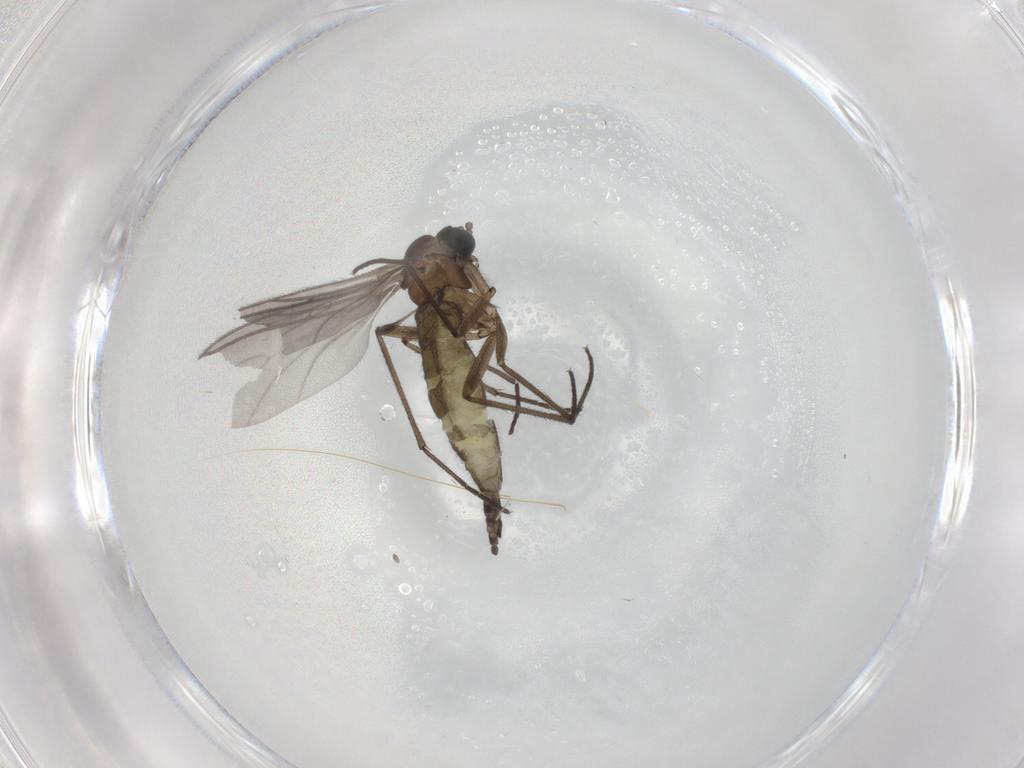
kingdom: Animalia
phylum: Arthropoda
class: Insecta
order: Diptera
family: Sciaridae
